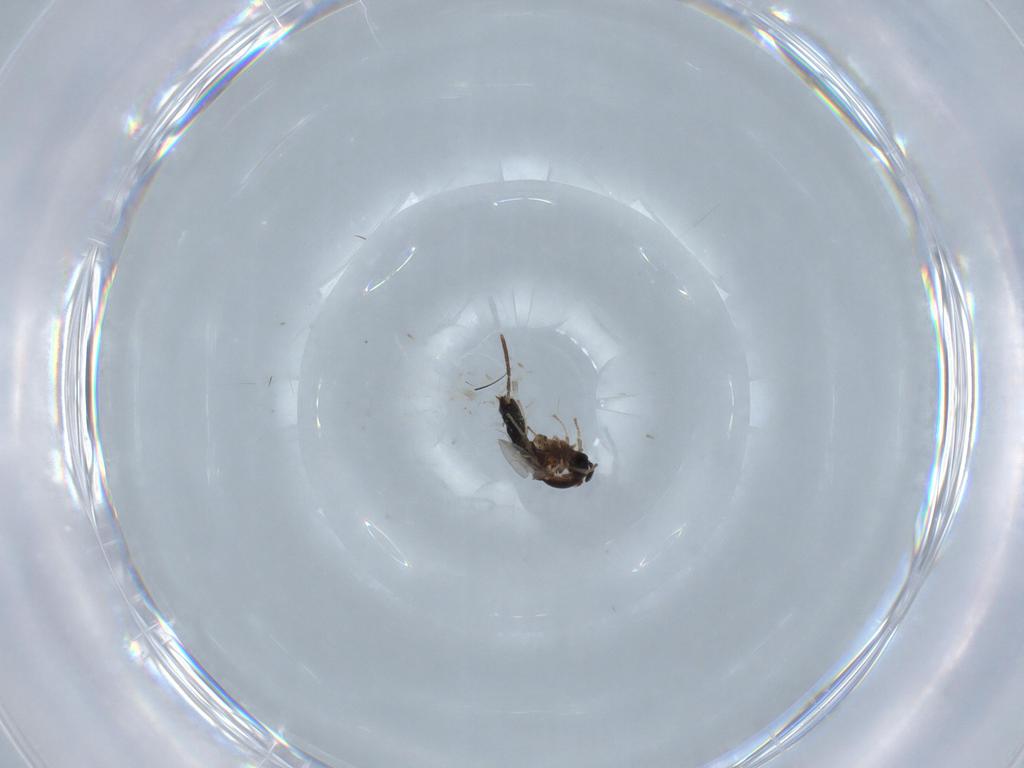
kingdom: Animalia
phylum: Arthropoda
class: Insecta
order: Diptera
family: Scatopsidae
